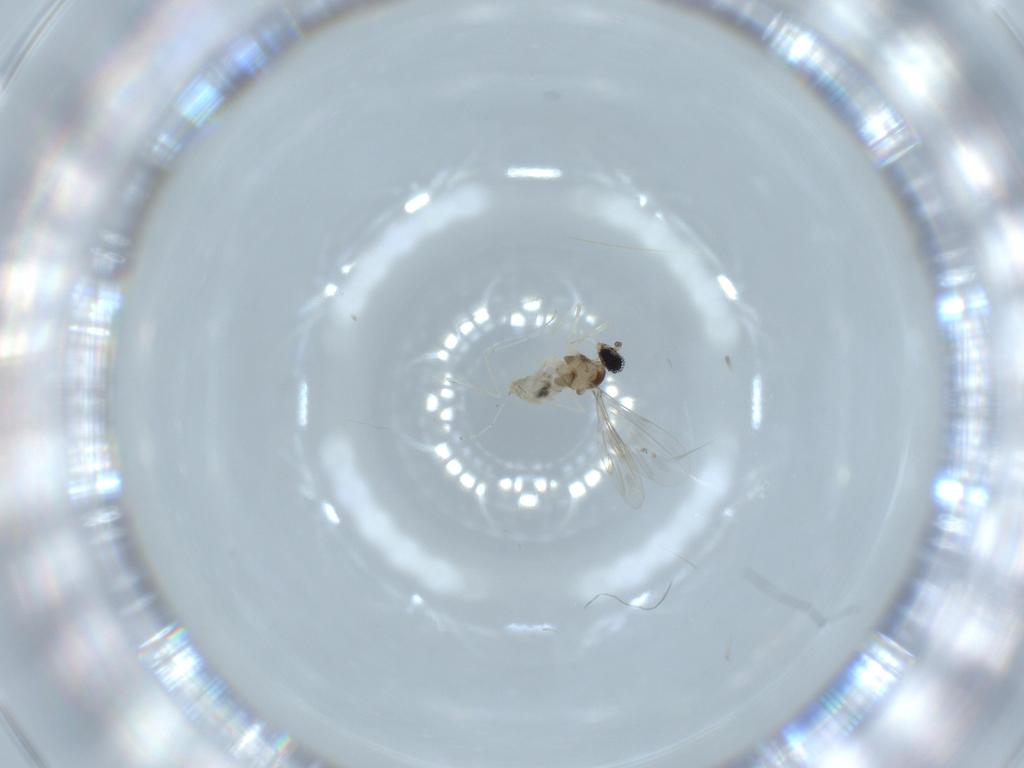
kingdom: Animalia
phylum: Arthropoda
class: Insecta
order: Diptera
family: Cecidomyiidae
